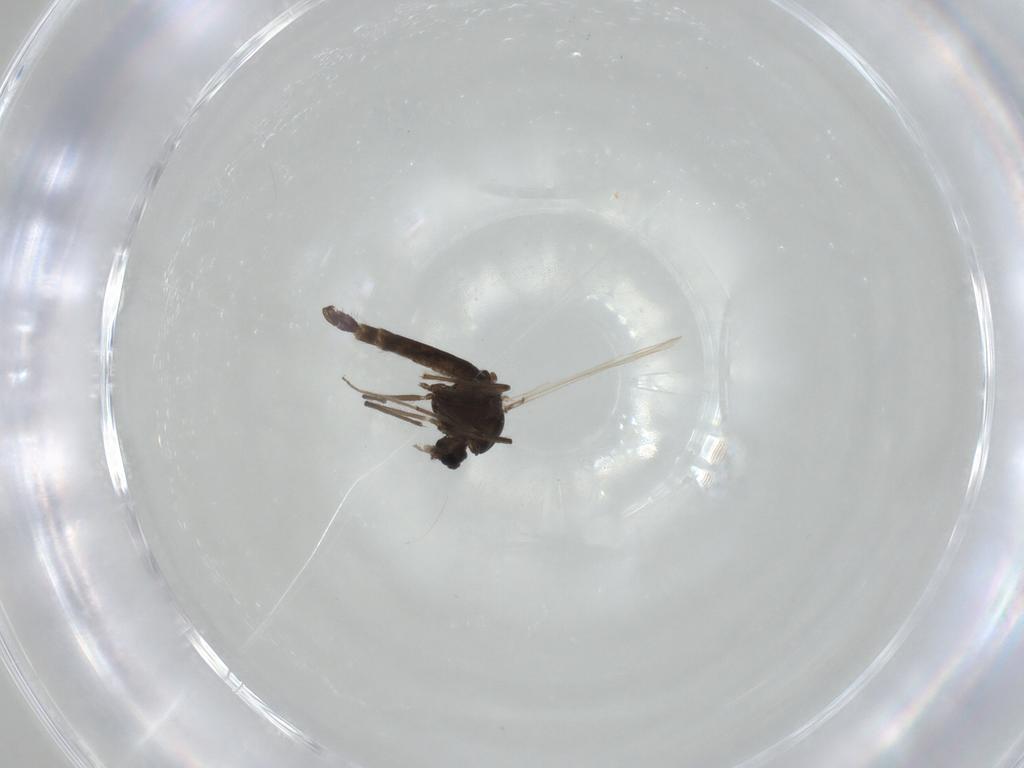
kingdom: Animalia
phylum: Arthropoda
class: Insecta
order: Diptera
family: Chironomidae
